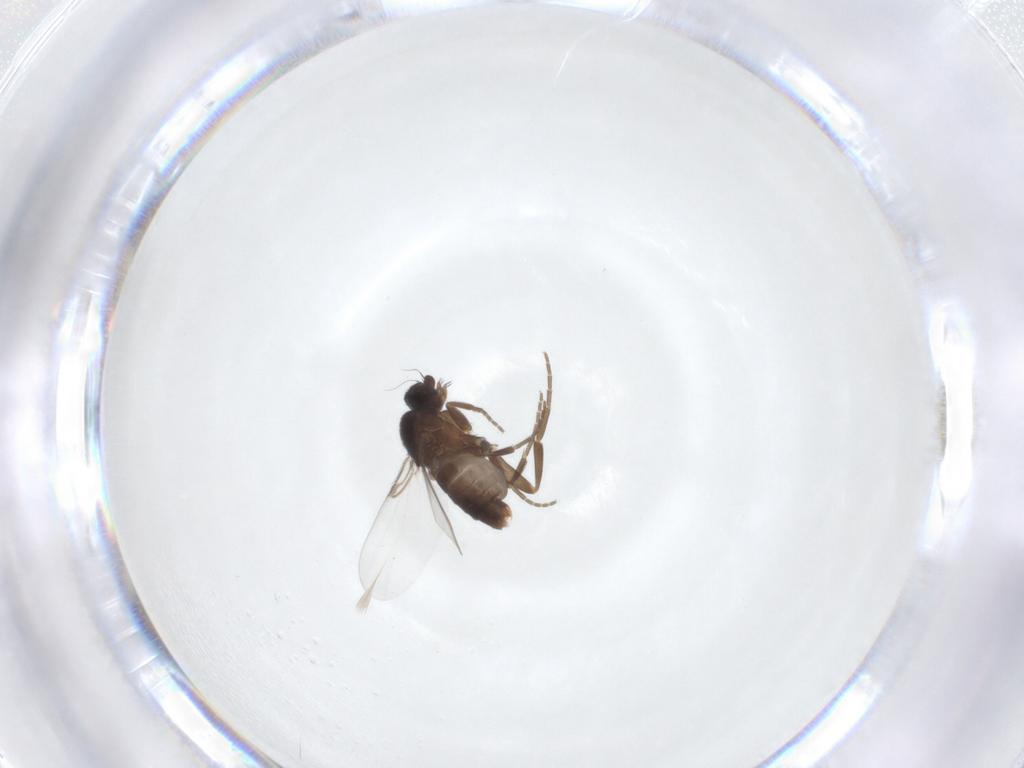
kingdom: Animalia
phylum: Arthropoda
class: Insecta
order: Diptera
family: Phoridae
